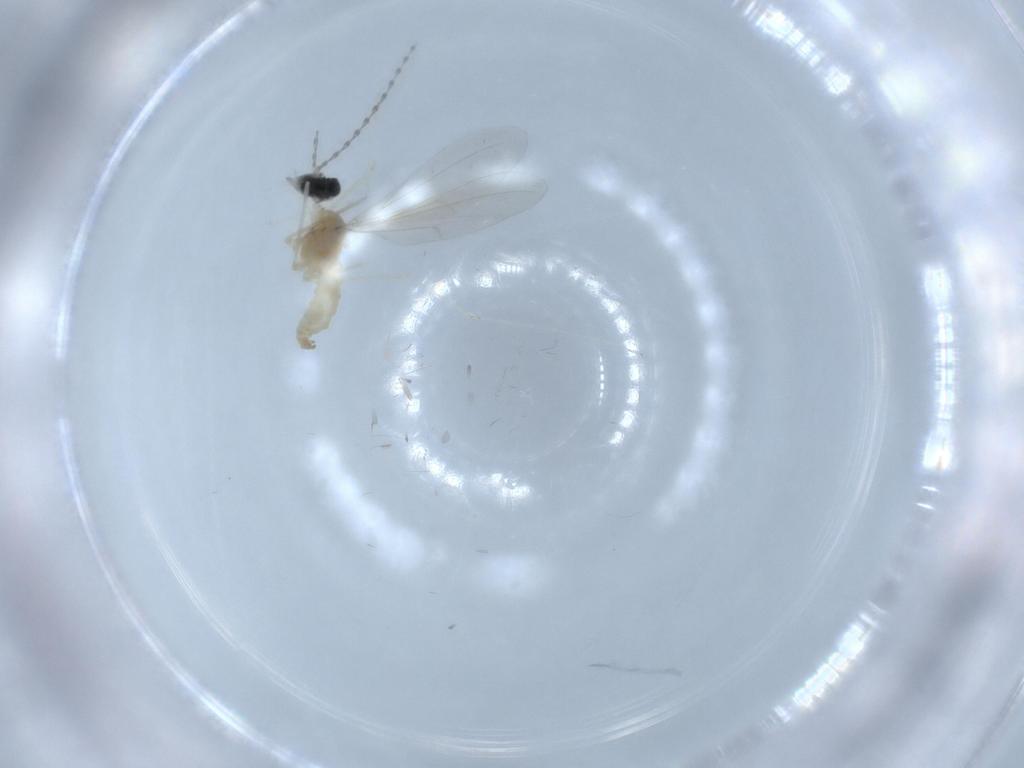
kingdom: Animalia
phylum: Arthropoda
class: Insecta
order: Diptera
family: Cecidomyiidae
